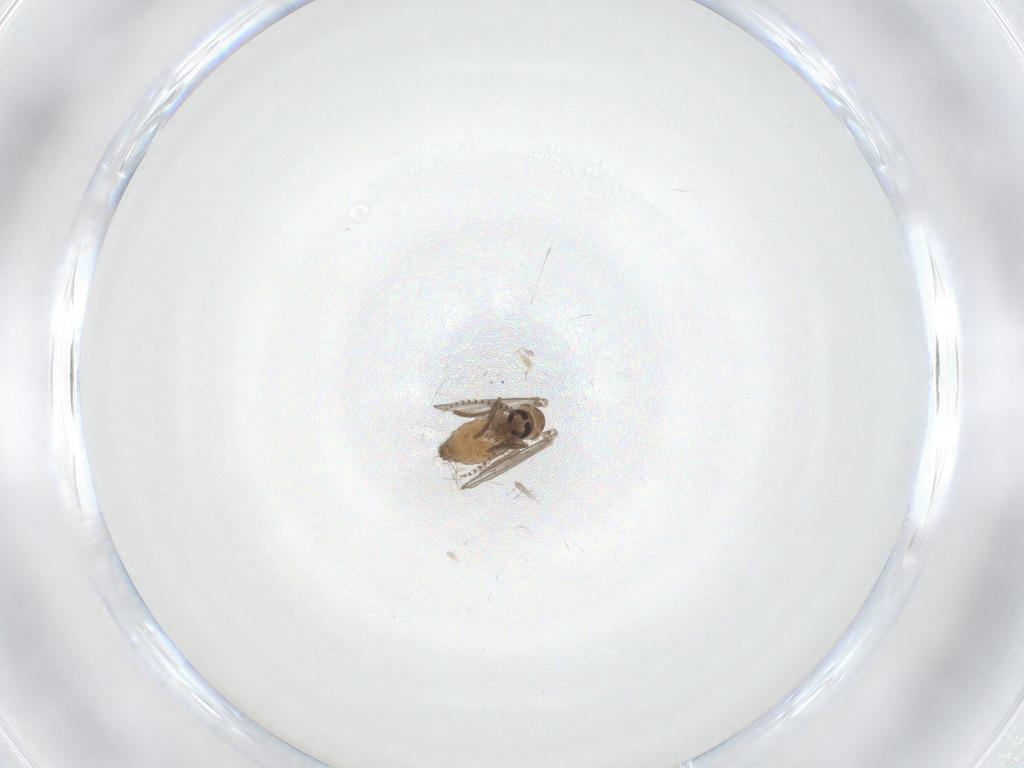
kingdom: Animalia
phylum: Arthropoda
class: Insecta
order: Diptera
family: Psychodidae
